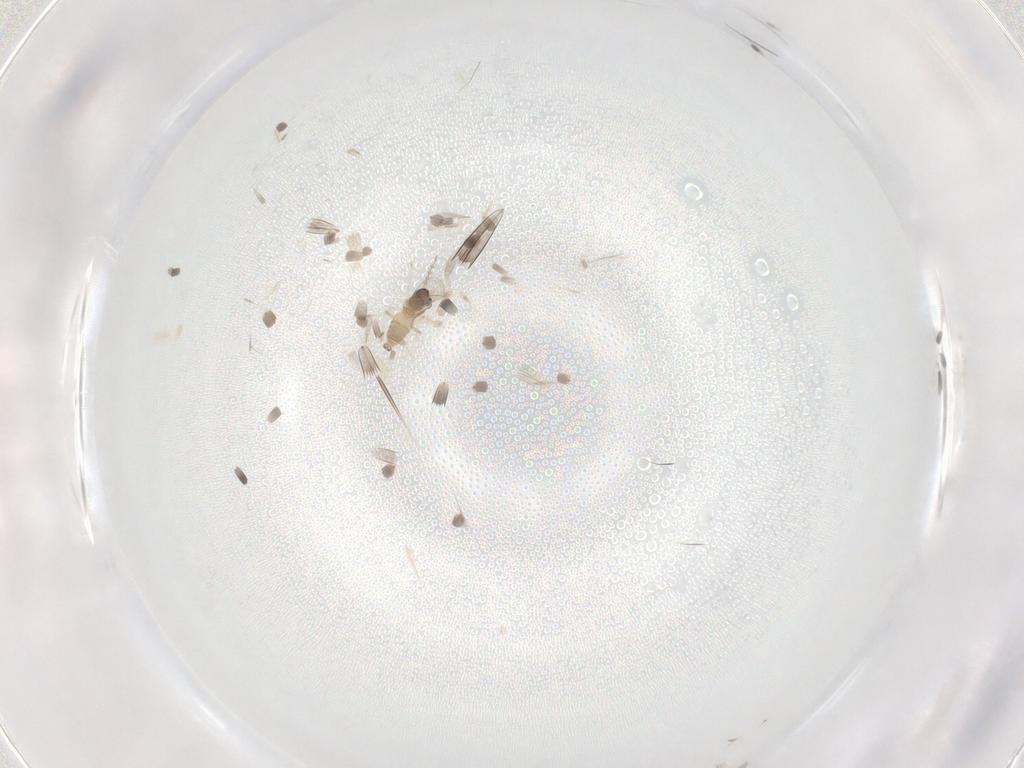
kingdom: Animalia
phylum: Arthropoda
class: Insecta
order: Diptera
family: Cecidomyiidae
